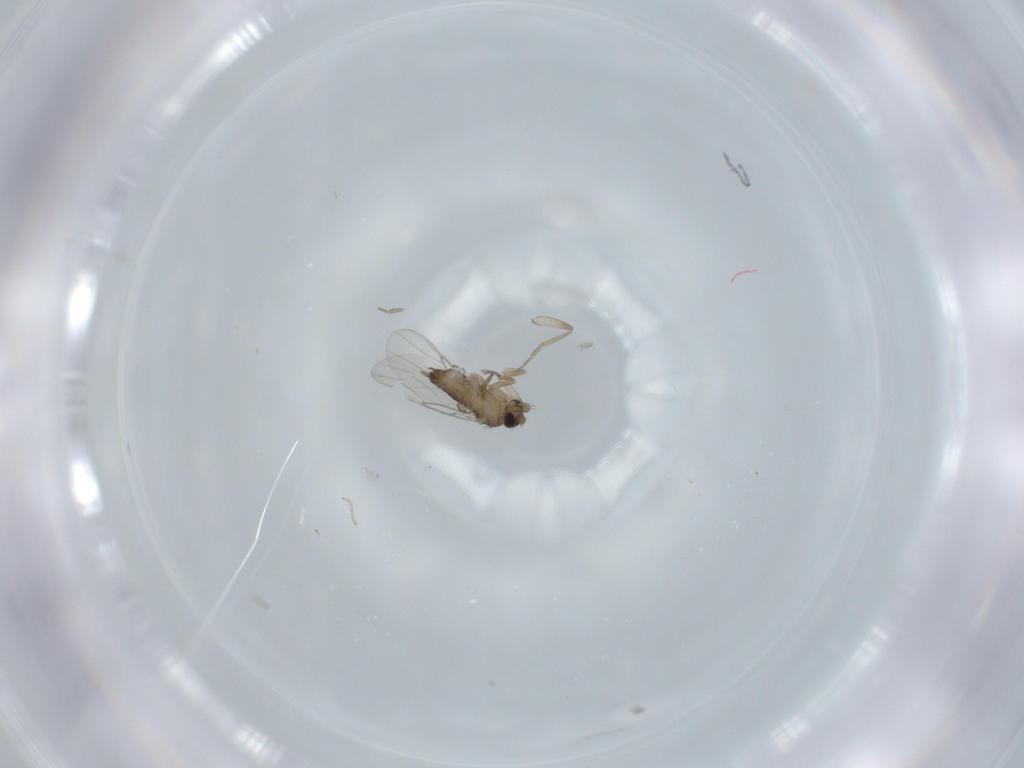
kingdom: Animalia
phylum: Arthropoda
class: Insecta
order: Diptera
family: Phoridae
